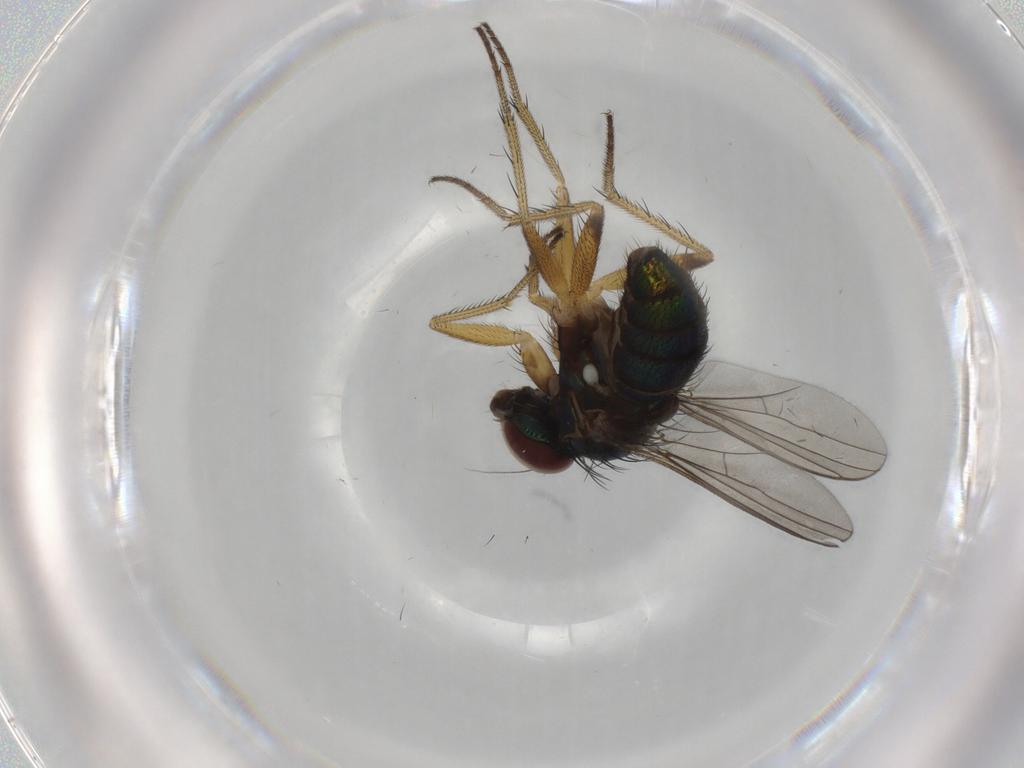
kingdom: Animalia
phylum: Arthropoda
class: Insecta
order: Diptera
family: Dolichopodidae
